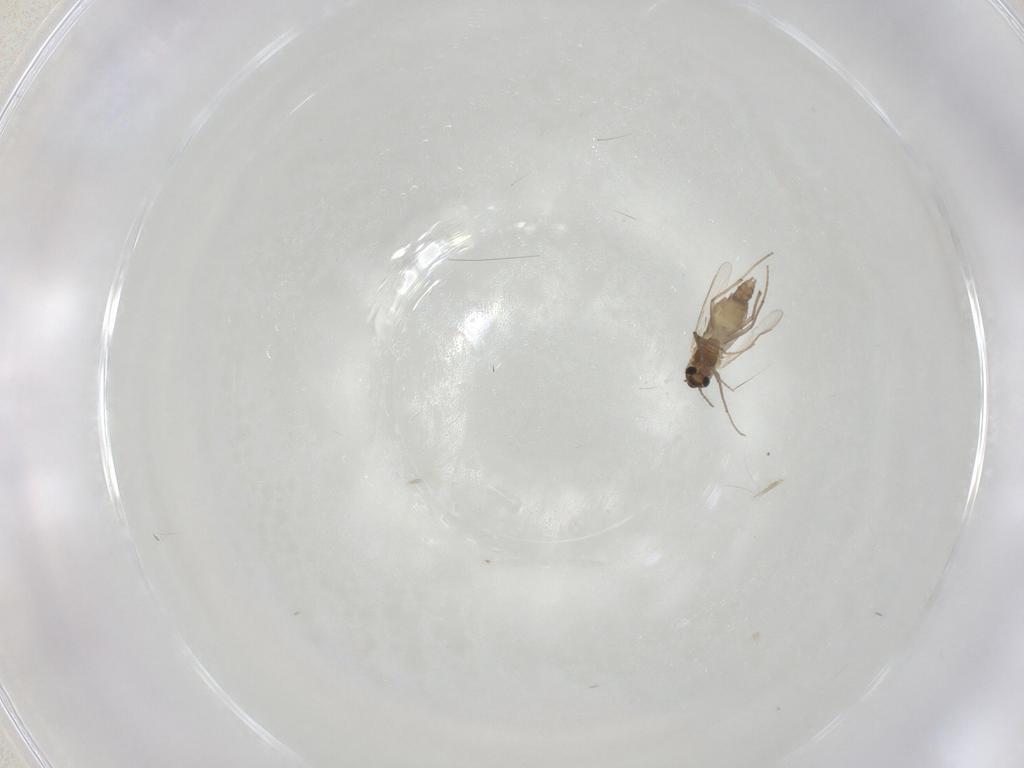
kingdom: Animalia
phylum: Arthropoda
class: Insecta
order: Diptera
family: Chironomidae
